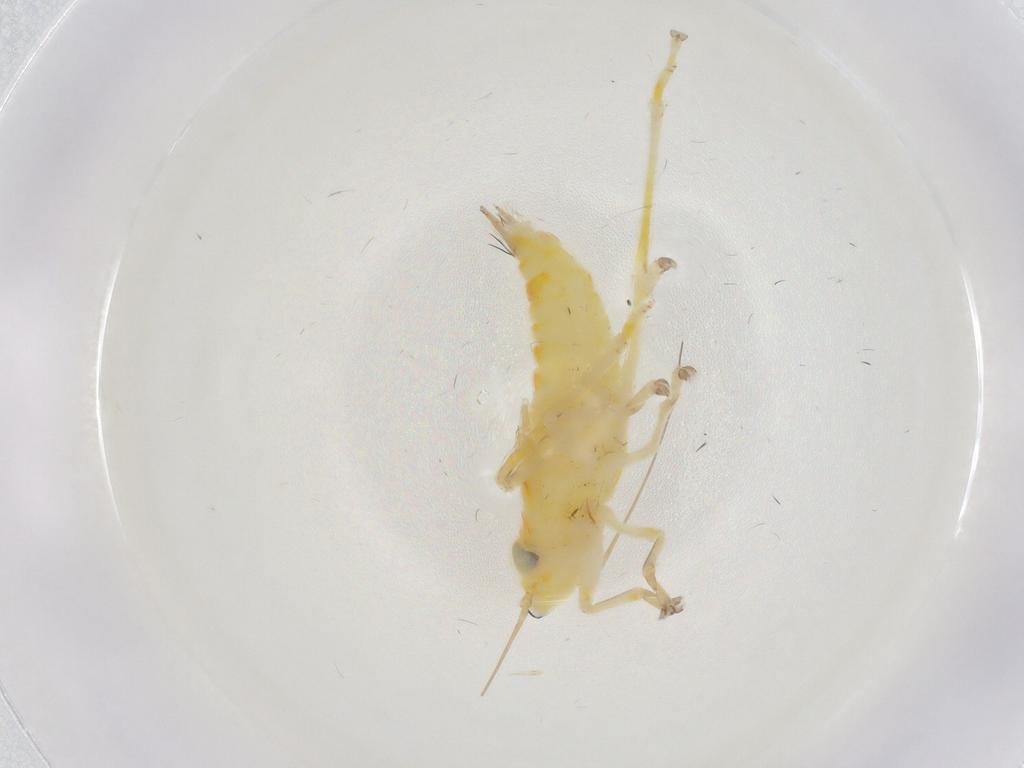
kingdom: Animalia
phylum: Arthropoda
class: Insecta
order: Hemiptera
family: Cicadellidae
